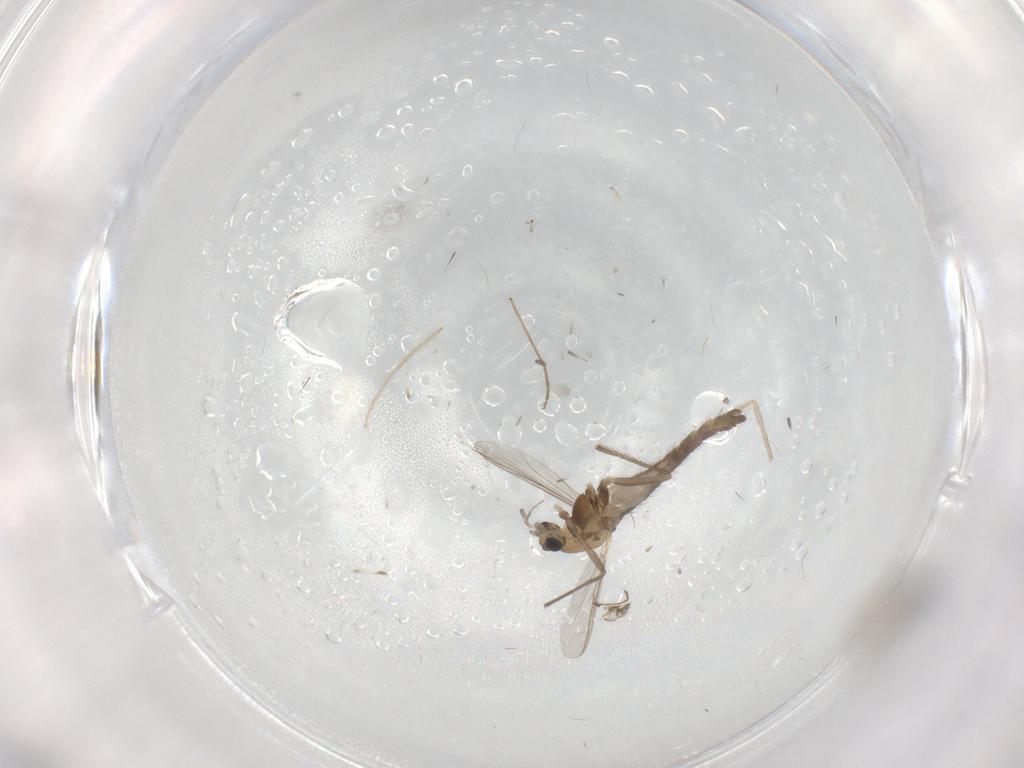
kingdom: Animalia
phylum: Arthropoda
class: Insecta
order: Diptera
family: Chironomidae
